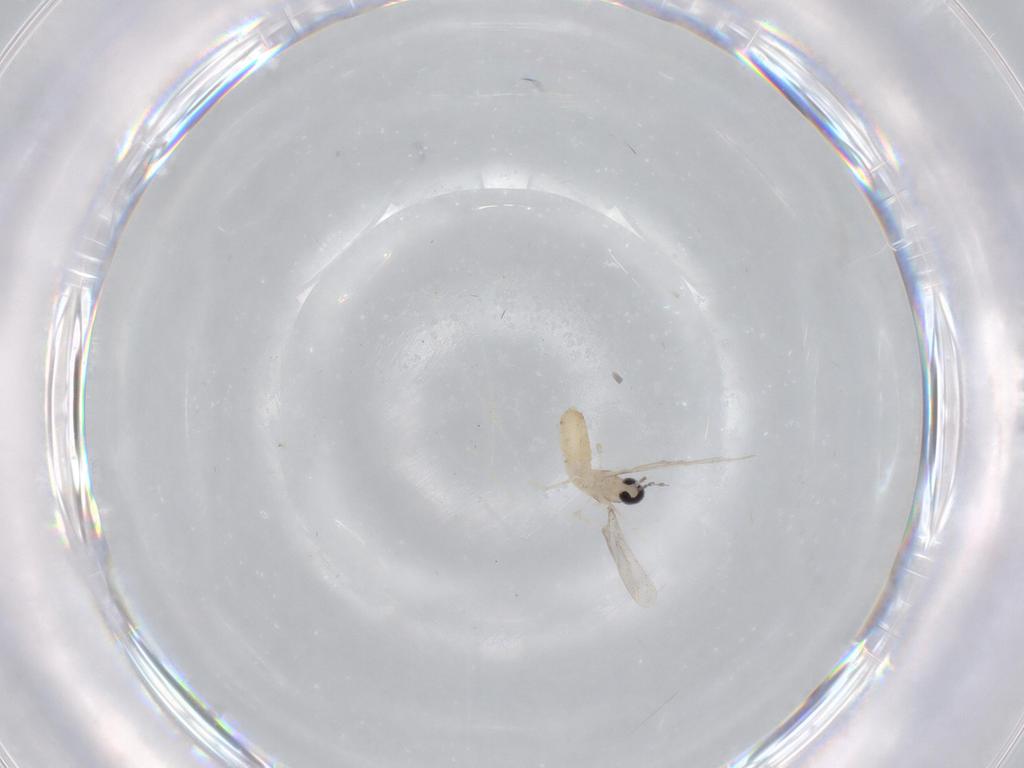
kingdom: Animalia
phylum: Arthropoda
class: Insecta
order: Diptera
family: Cecidomyiidae
